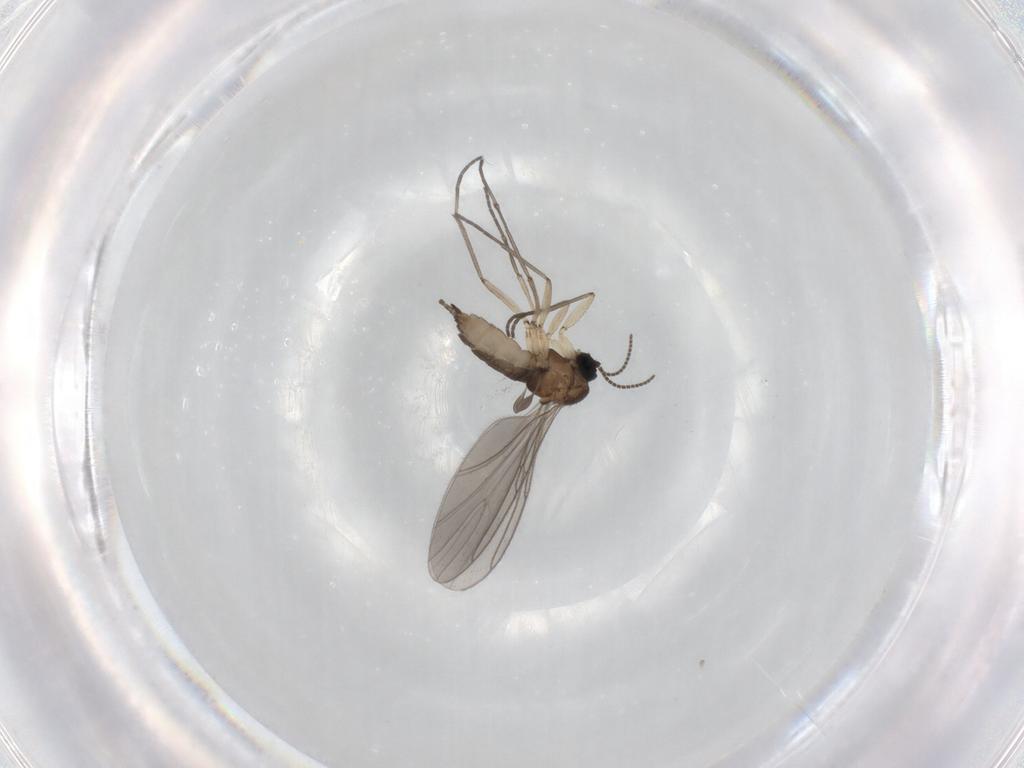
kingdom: Animalia
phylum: Arthropoda
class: Insecta
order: Diptera
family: Sciaridae
